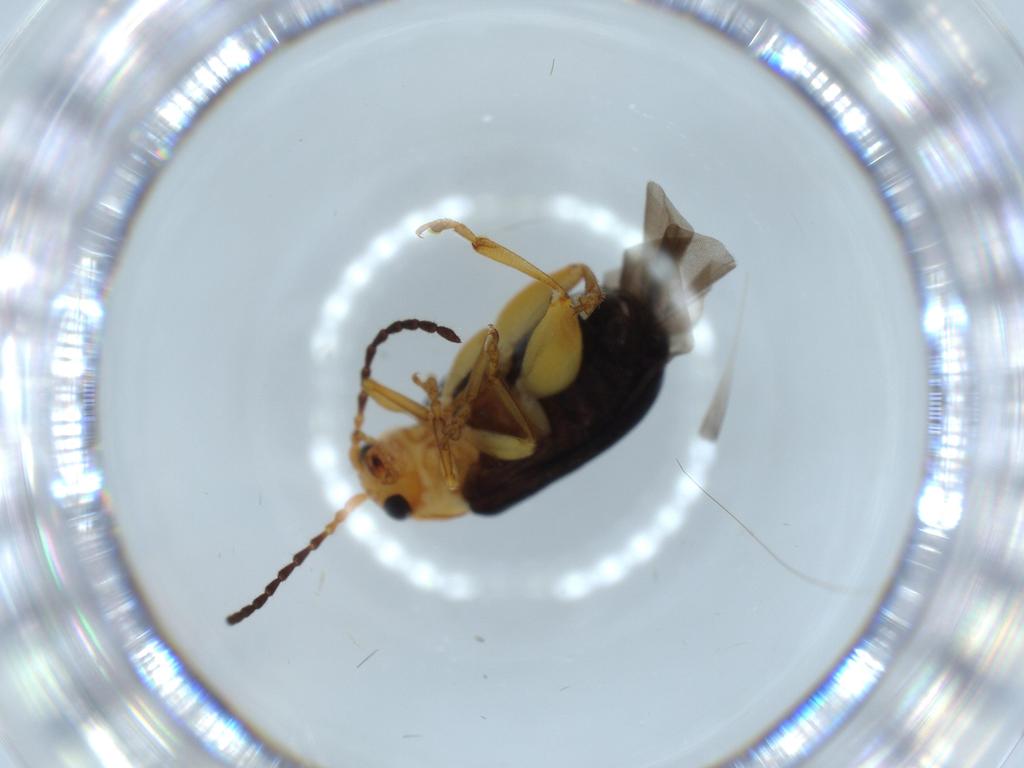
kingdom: Animalia
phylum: Arthropoda
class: Insecta
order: Coleoptera
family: Chrysomelidae
